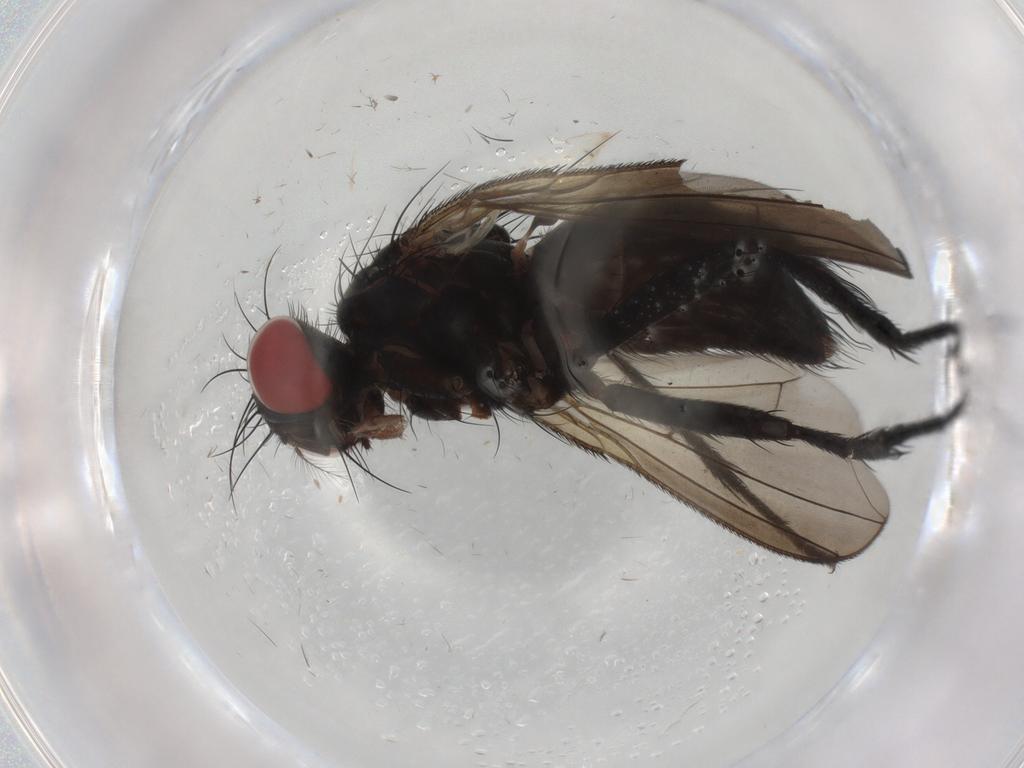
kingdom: Animalia
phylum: Arthropoda
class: Insecta
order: Diptera
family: Sarcophagidae
